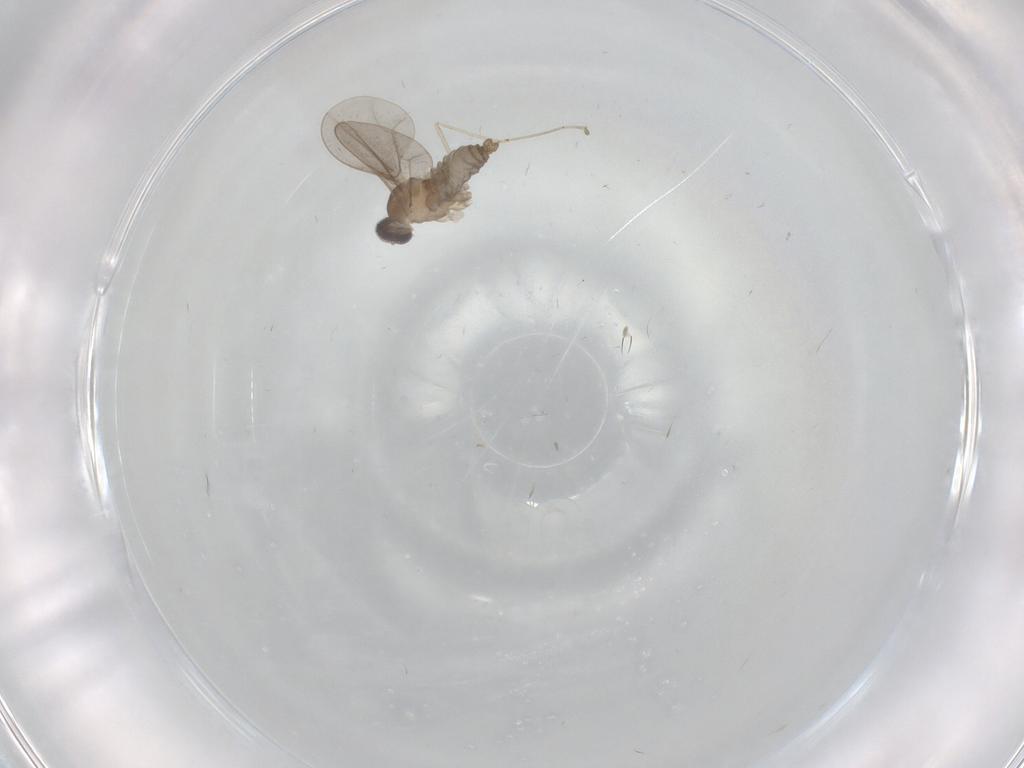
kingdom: Animalia
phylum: Arthropoda
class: Insecta
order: Diptera
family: Cecidomyiidae
